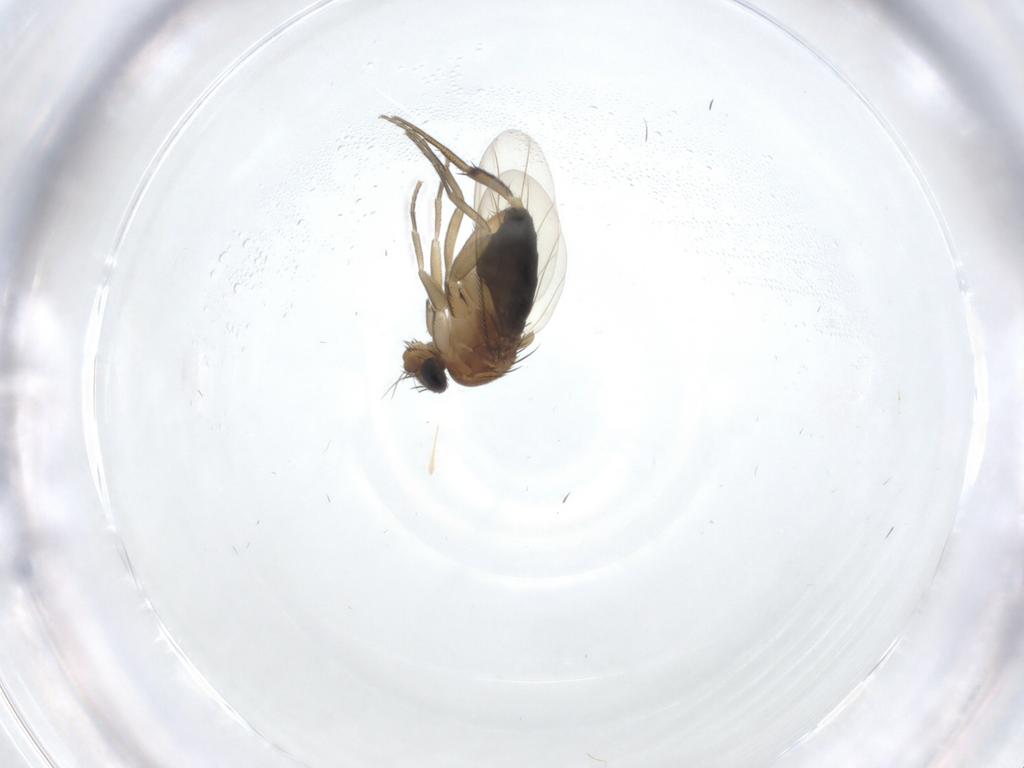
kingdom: Animalia
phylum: Arthropoda
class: Insecta
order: Diptera
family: Phoridae
